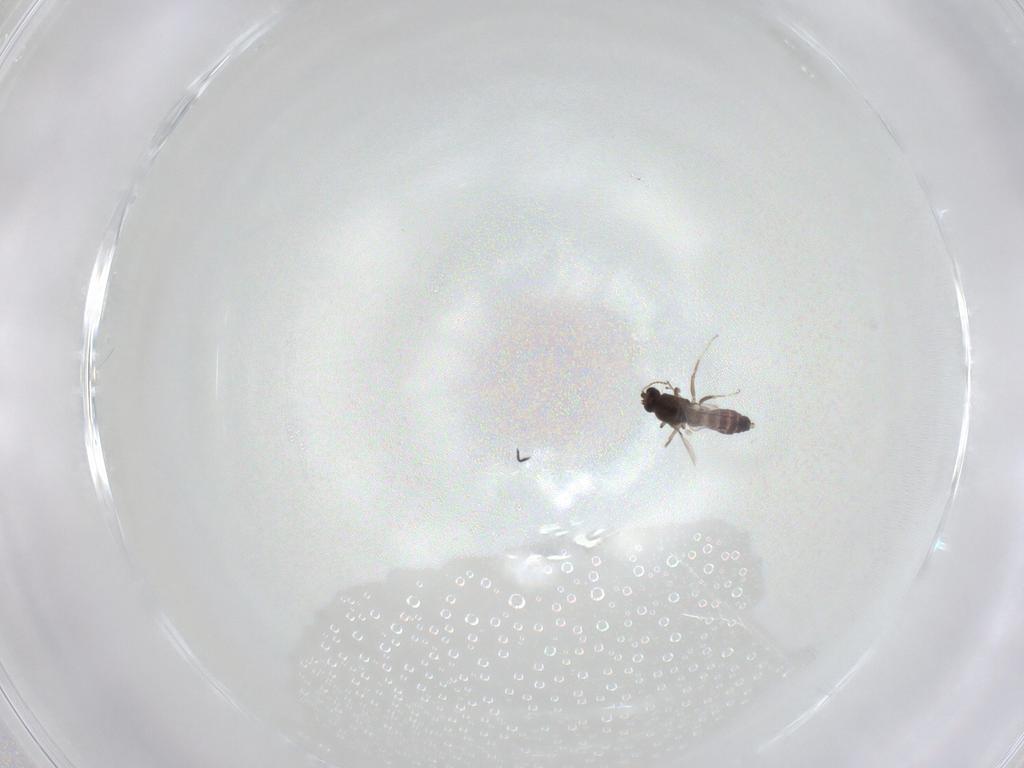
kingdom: Animalia
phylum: Arthropoda
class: Insecta
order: Diptera
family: Ceratopogonidae
